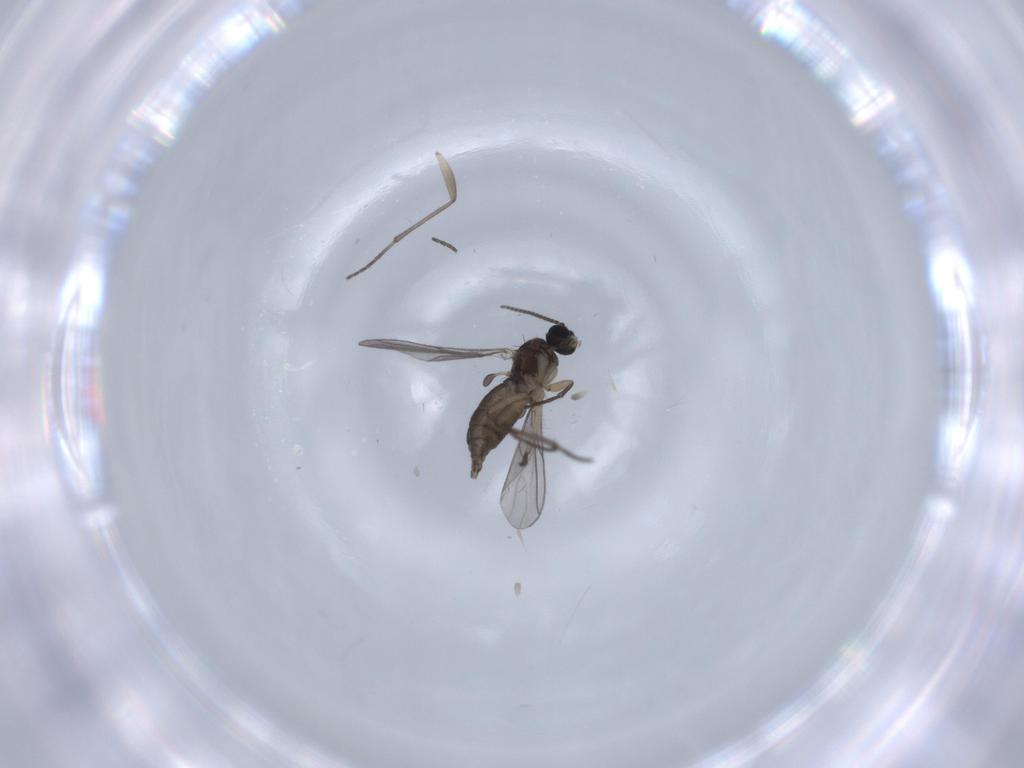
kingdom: Animalia
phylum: Arthropoda
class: Insecta
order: Diptera
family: Sciaridae
